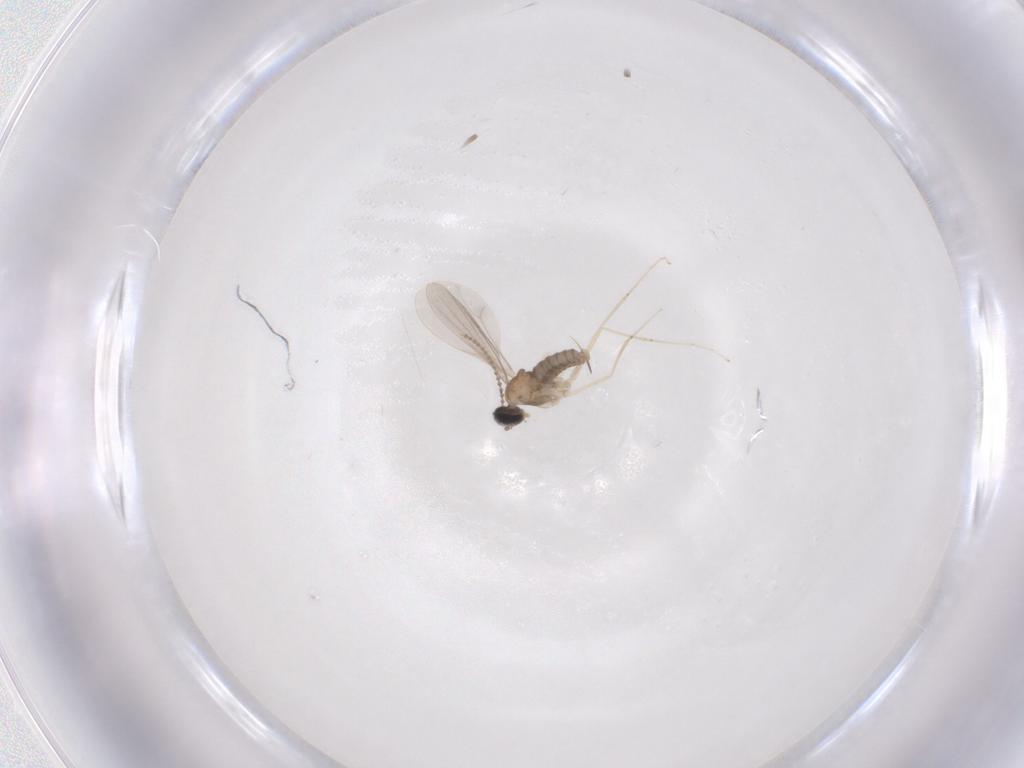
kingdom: Animalia
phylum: Arthropoda
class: Insecta
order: Diptera
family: Cecidomyiidae
